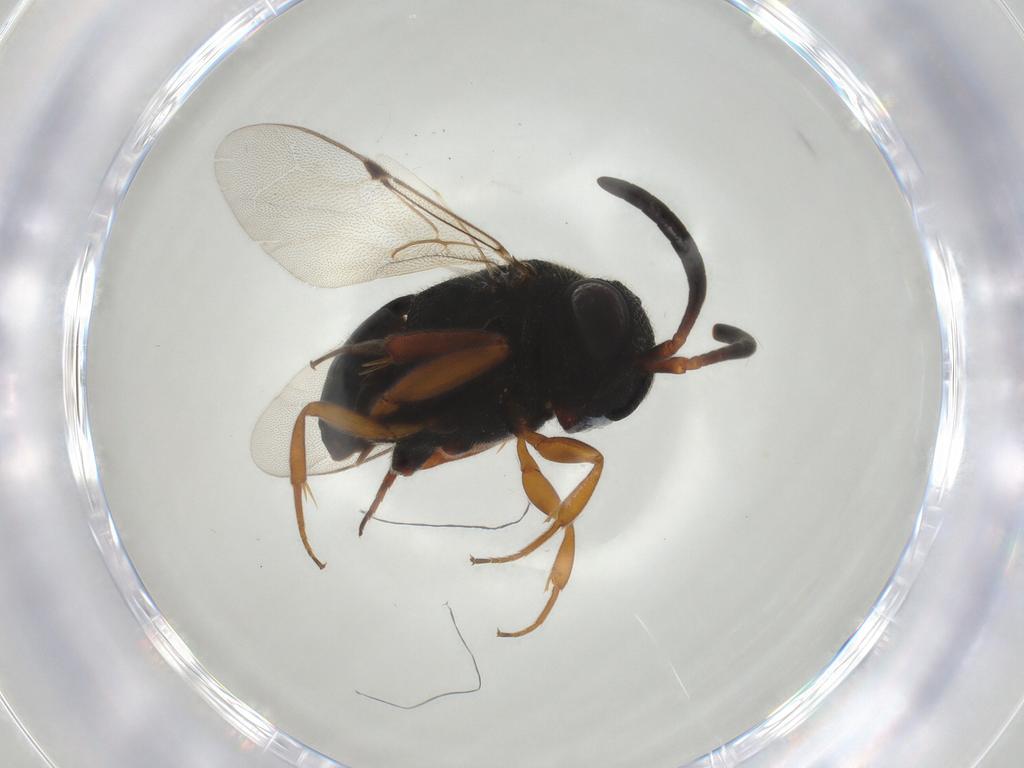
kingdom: Animalia
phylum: Arthropoda
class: Insecta
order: Hymenoptera
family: Evaniidae
